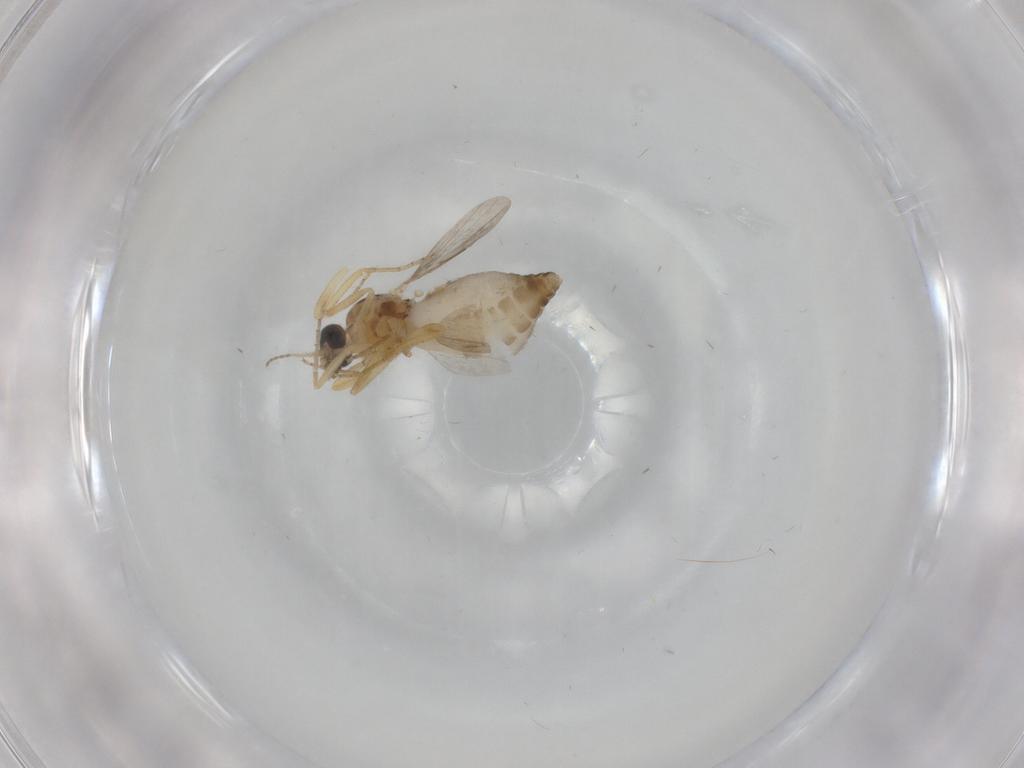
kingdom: Animalia
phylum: Arthropoda
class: Insecta
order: Diptera
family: Ceratopogonidae
